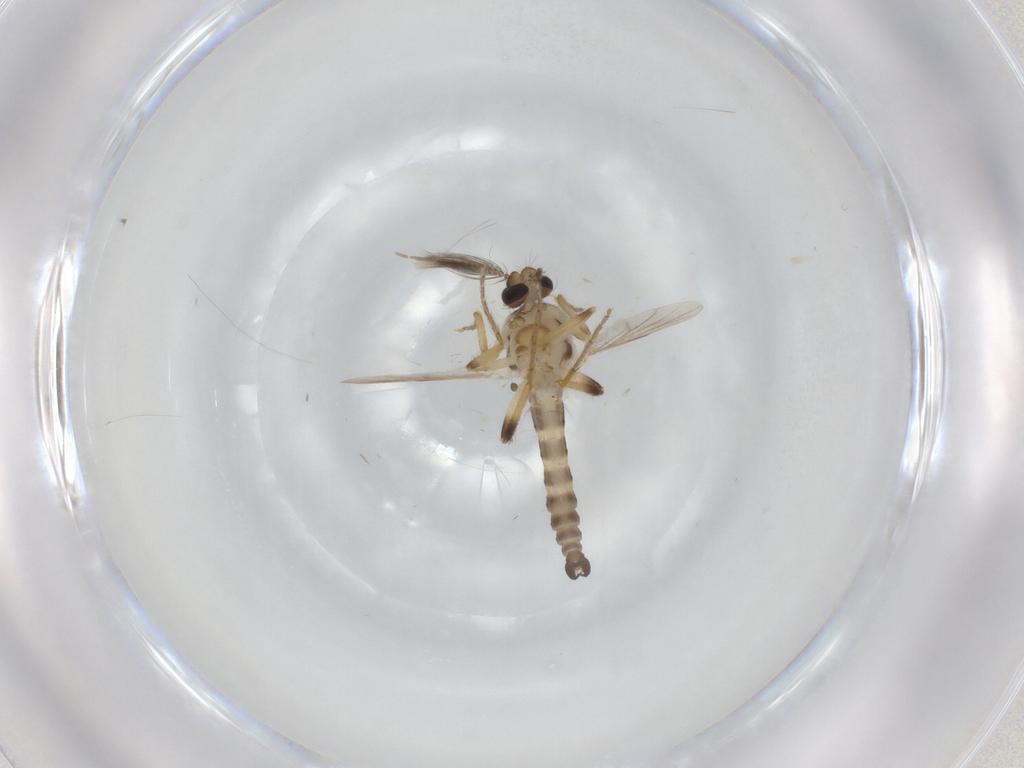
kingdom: Animalia
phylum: Arthropoda
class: Insecta
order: Diptera
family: Ceratopogonidae
